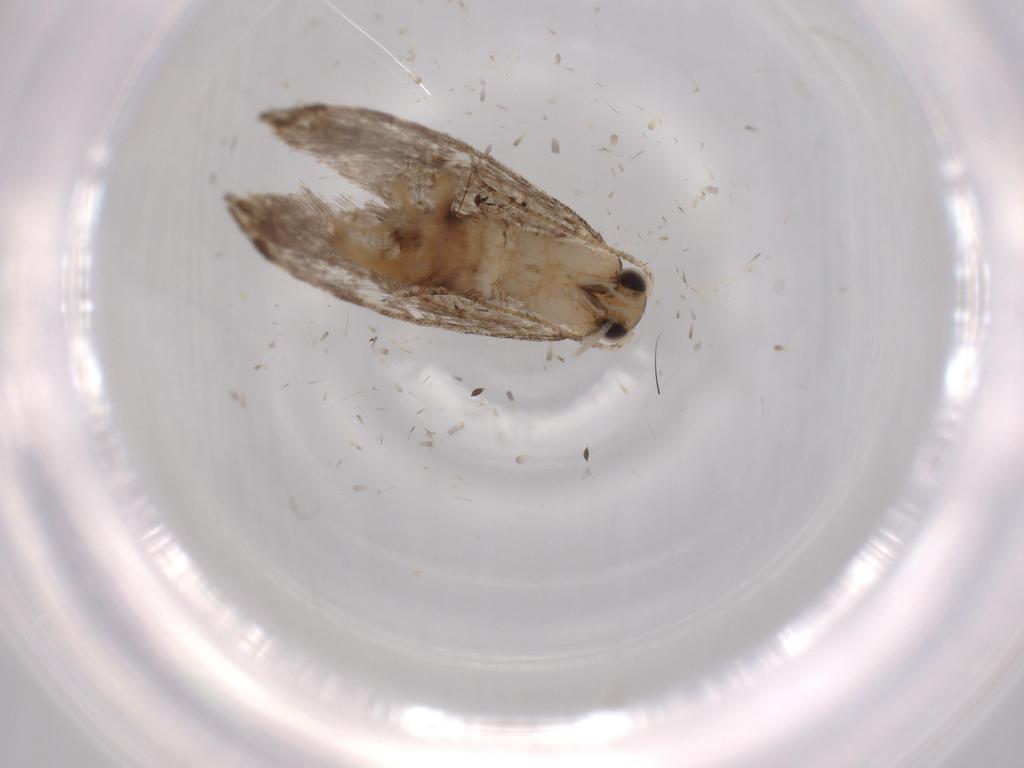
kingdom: Animalia
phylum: Arthropoda
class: Insecta
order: Lepidoptera
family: Tineidae
